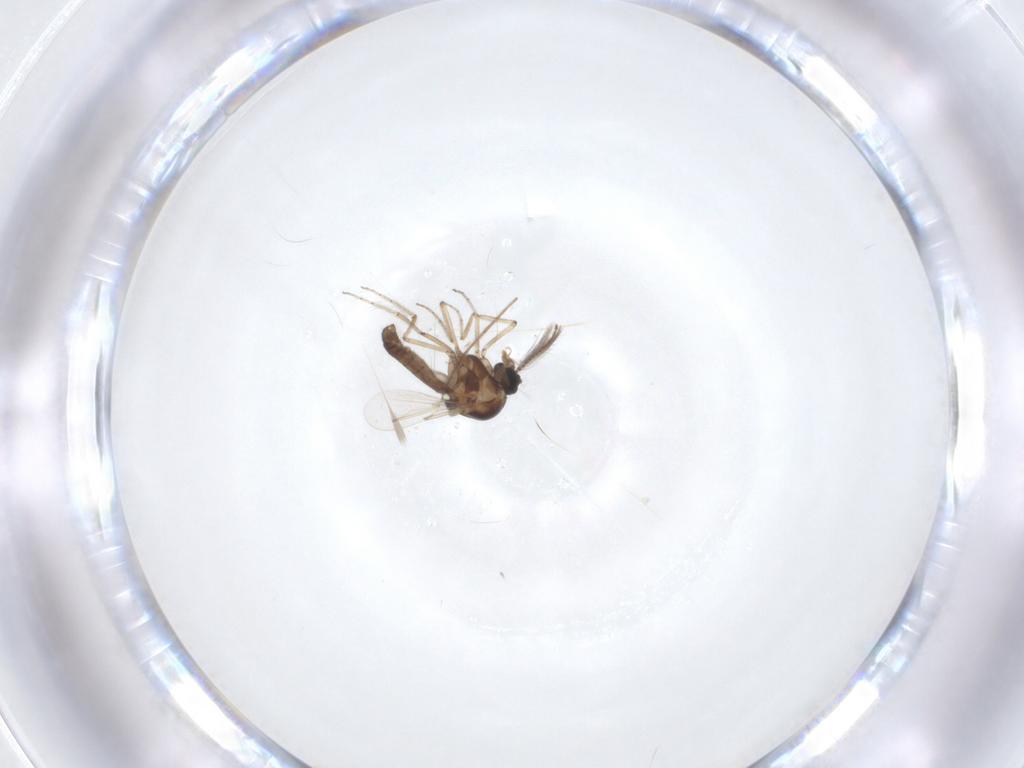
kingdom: Animalia
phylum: Arthropoda
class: Insecta
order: Diptera
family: Ceratopogonidae
